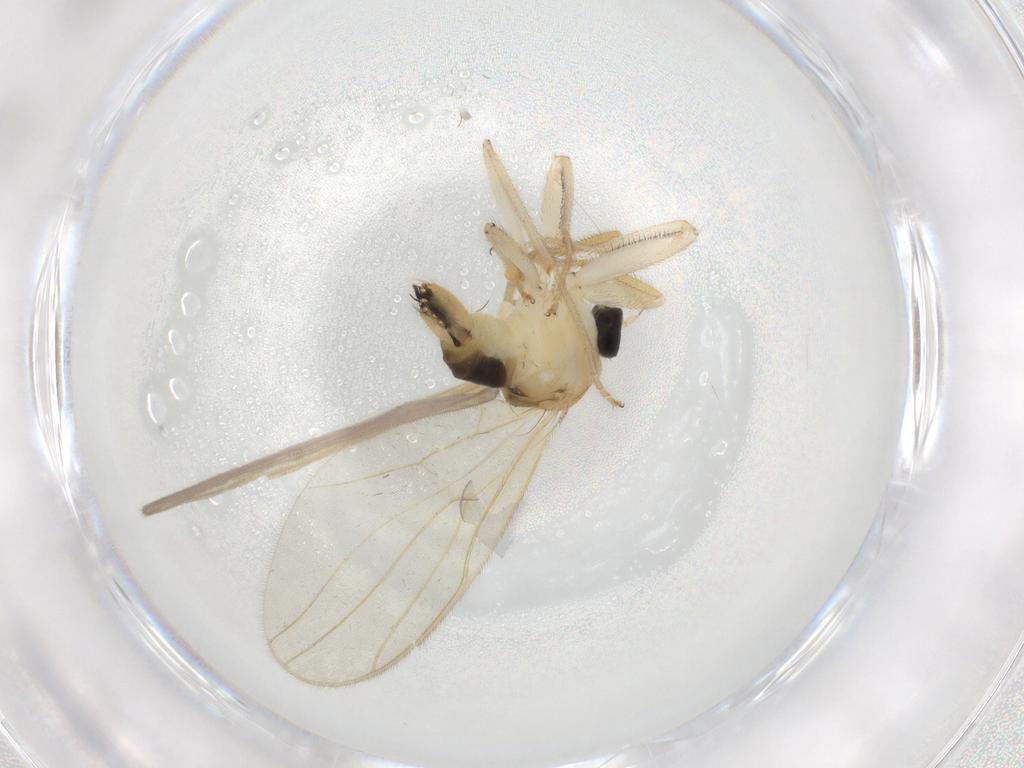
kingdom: Animalia
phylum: Arthropoda
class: Insecta
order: Diptera
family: Hybotidae
